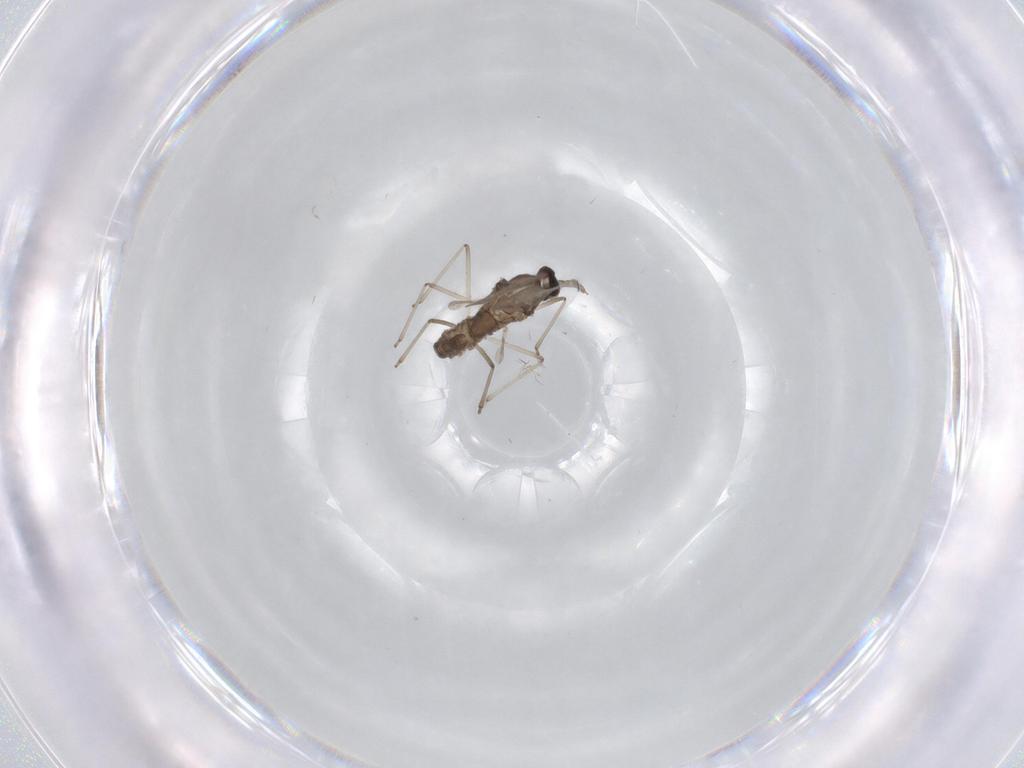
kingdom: Animalia
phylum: Arthropoda
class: Insecta
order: Diptera
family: Cecidomyiidae
